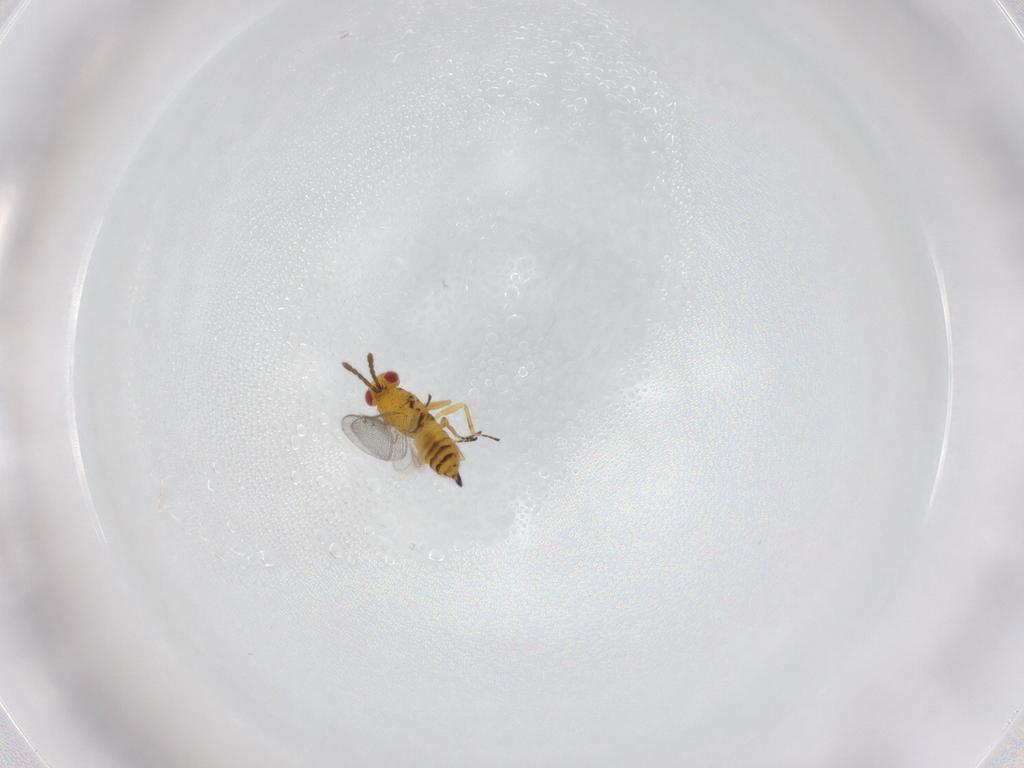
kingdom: Animalia
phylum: Arthropoda
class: Insecta
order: Hymenoptera
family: Eulophidae
